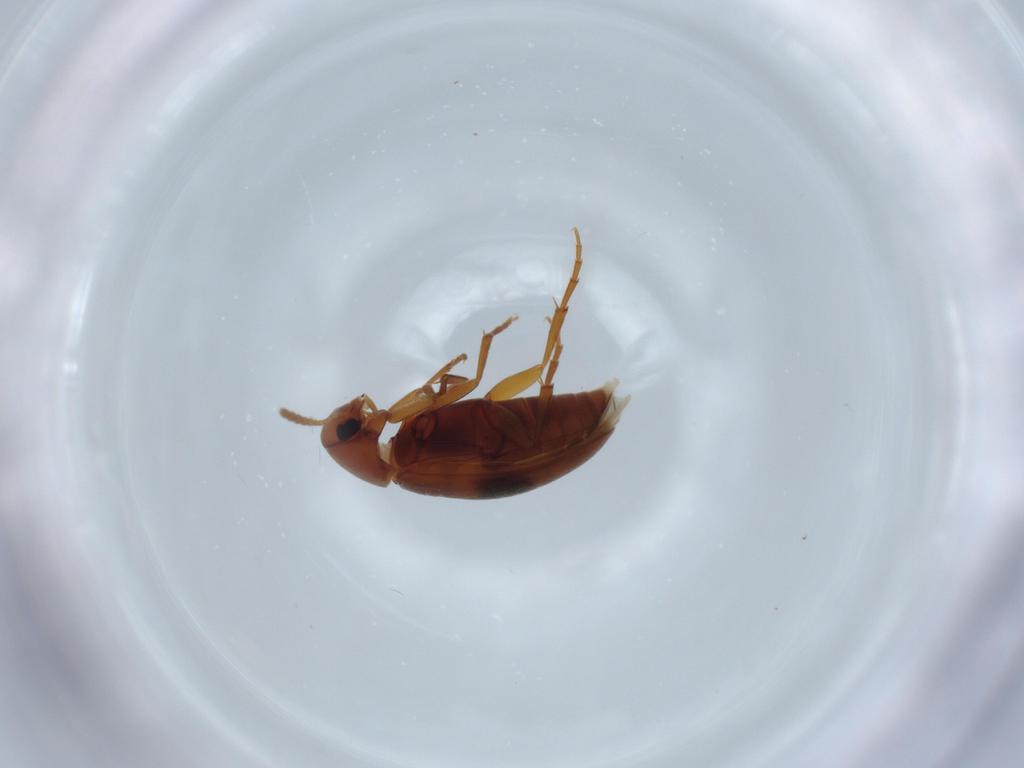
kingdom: Animalia
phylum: Arthropoda
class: Insecta
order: Coleoptera
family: Scraptiidae
